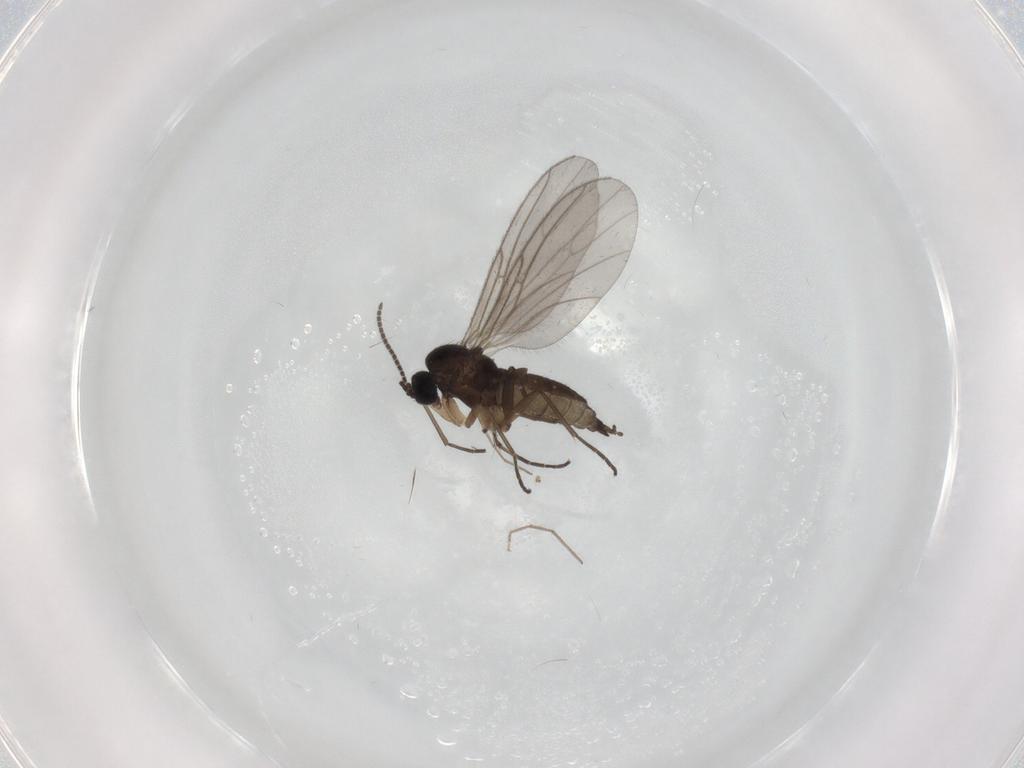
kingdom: Animalia
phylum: Arthropoda
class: Insecta
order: Diptera
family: Sciaridae
